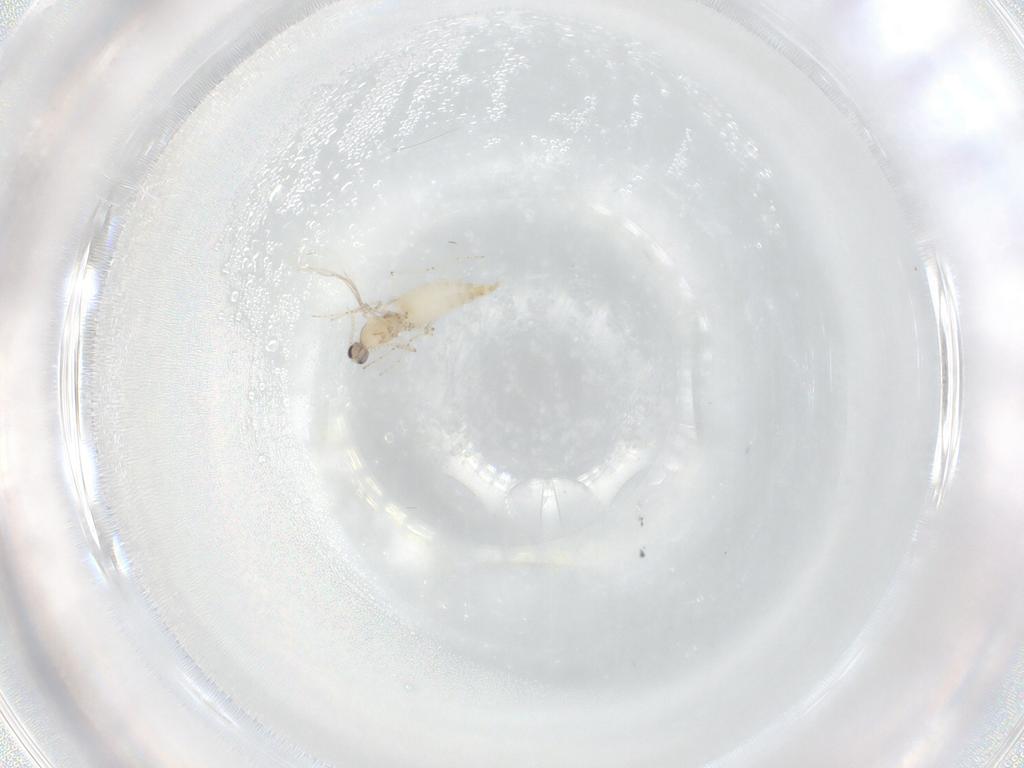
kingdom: Animalia
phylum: Arthropoda
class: Insecta
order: Diptera
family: Cecidomyiidae
